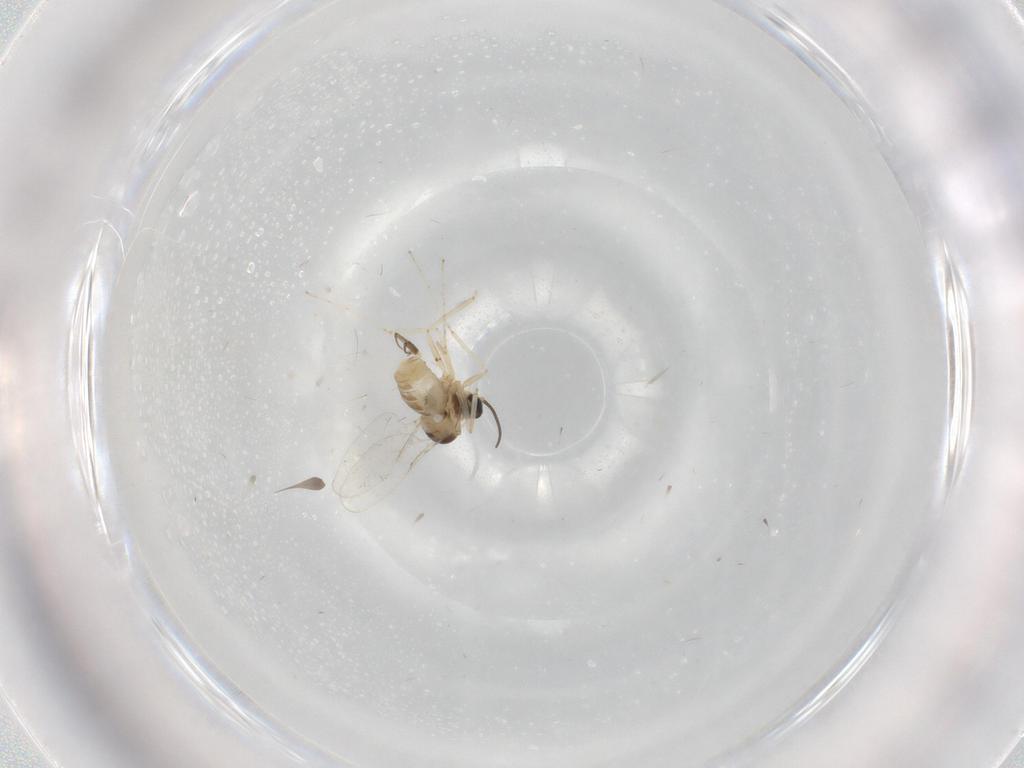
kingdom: Animalia
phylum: Arthropoda
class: Insecta
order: Diptera
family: Cecidomyiidae
